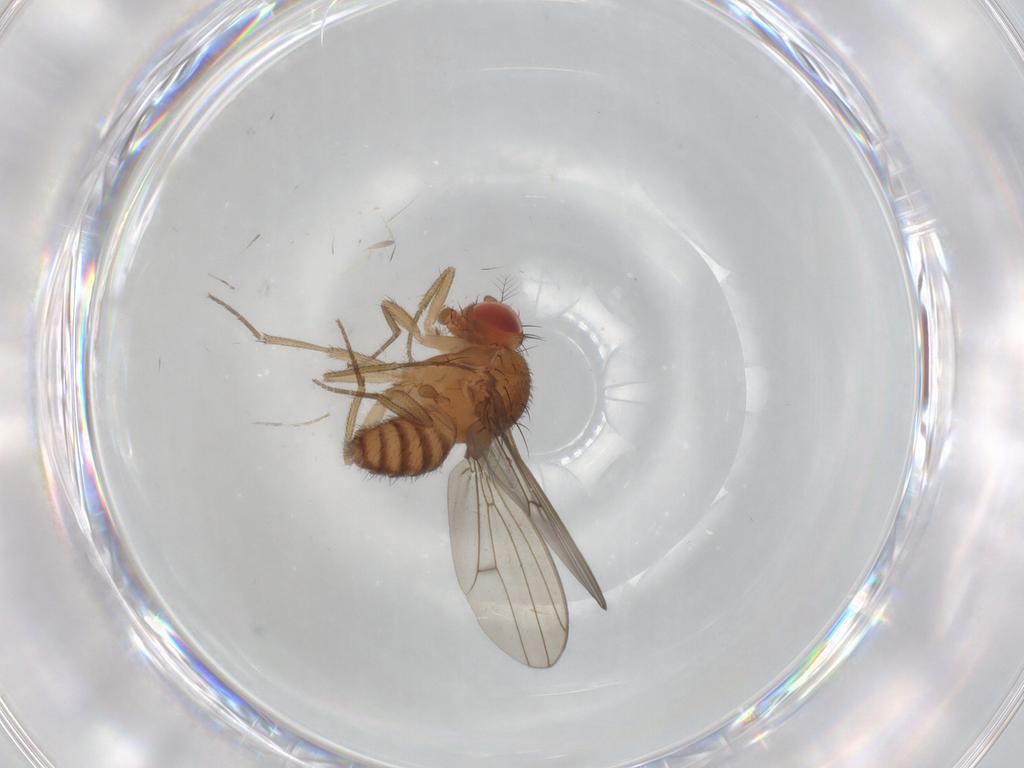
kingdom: Animalia
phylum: Arthropoda
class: Insecta
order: Diptera
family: Drosophilidae
